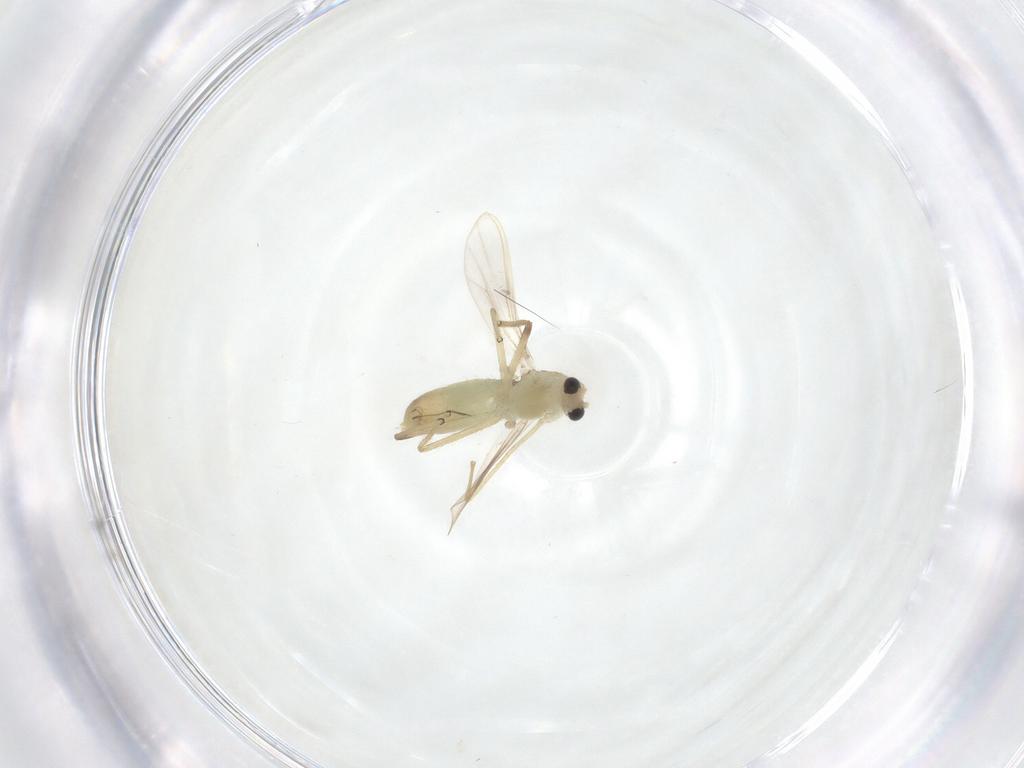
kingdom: Animalia
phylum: Arthropoda
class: Insecta
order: Diptera
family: Chironomidae
